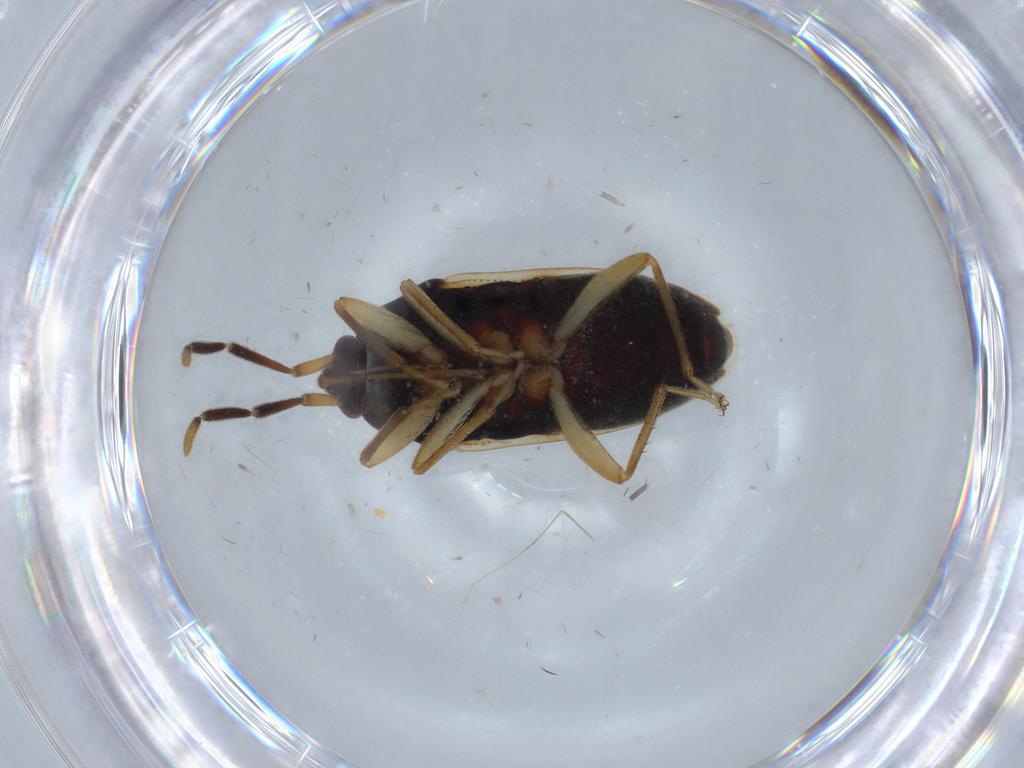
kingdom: Animalia
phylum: Arthropoda
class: Insecta
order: Hemiptera
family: Rhyparochromidae
